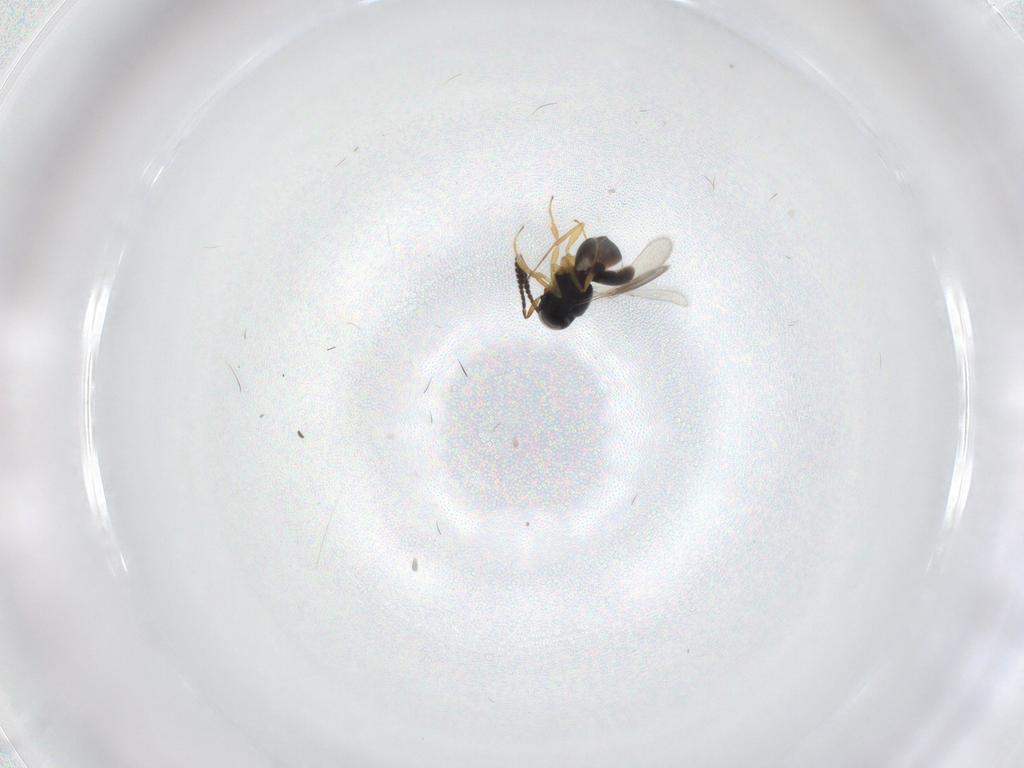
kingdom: Animalia
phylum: Arthropoda
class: Insecta
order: Hymenoptera
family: Scelionidae
